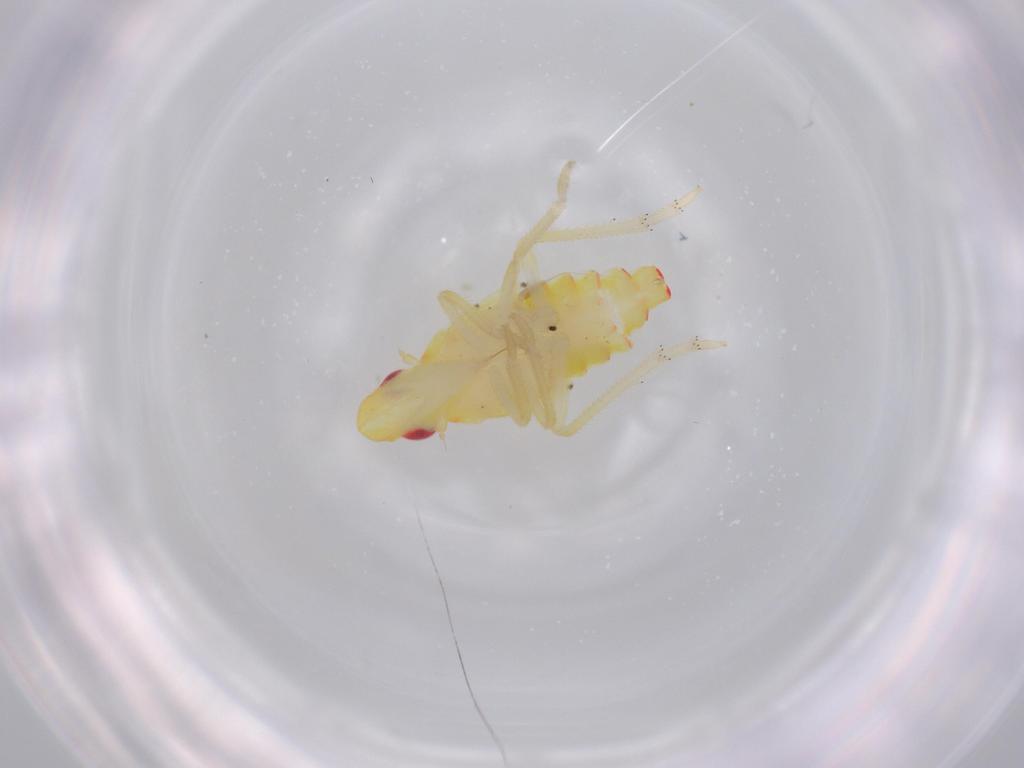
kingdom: Animalia
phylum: Arthropoda
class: Insecta
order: Hemiptera
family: Tropiduchidae
